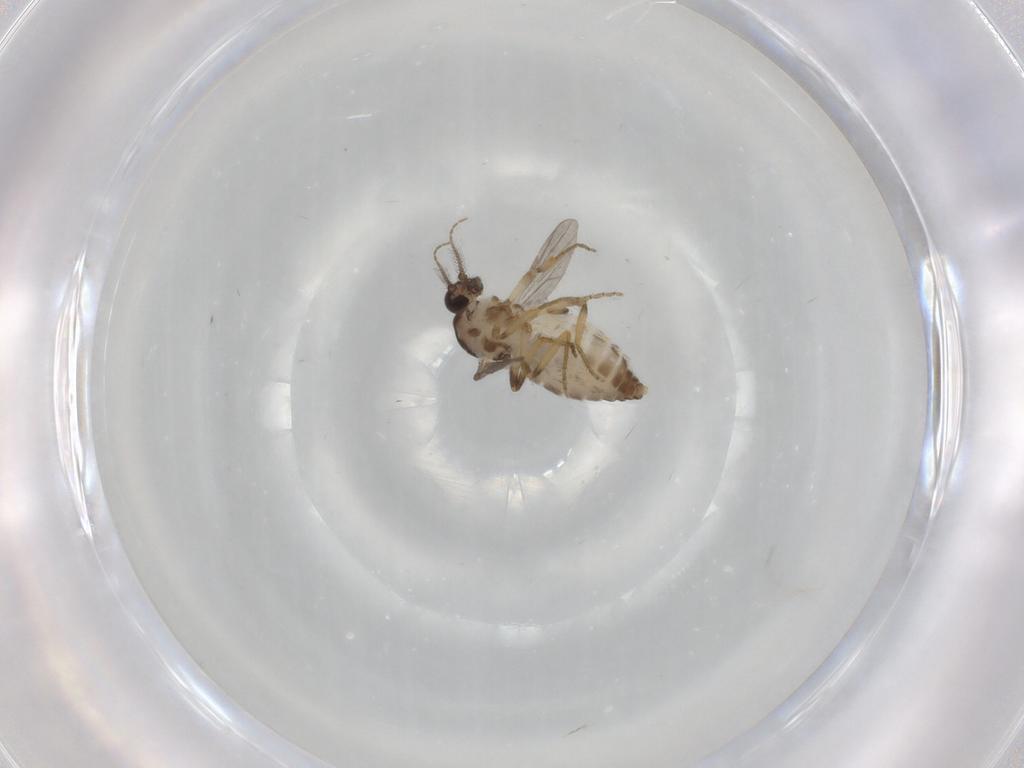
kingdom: Animalia
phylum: Arthropoda
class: Insecta
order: Diptera
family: Ceratopogonidae
